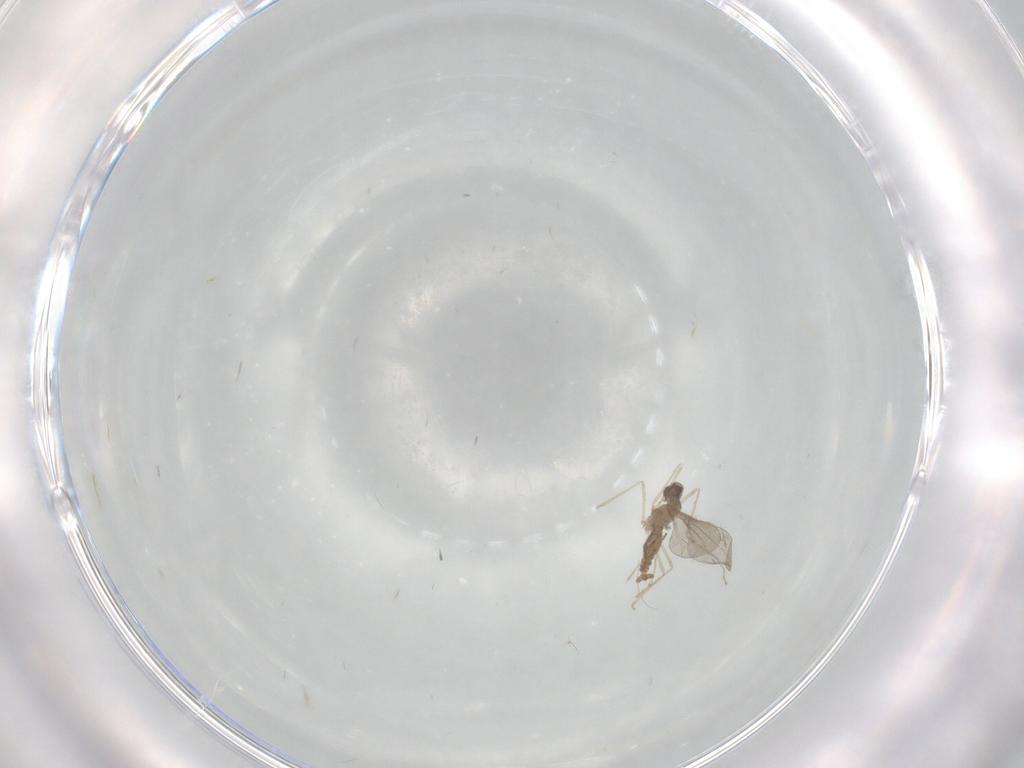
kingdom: Animalia
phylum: Arthropoda
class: Insecta
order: Diptera
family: Cecidomyiidae
